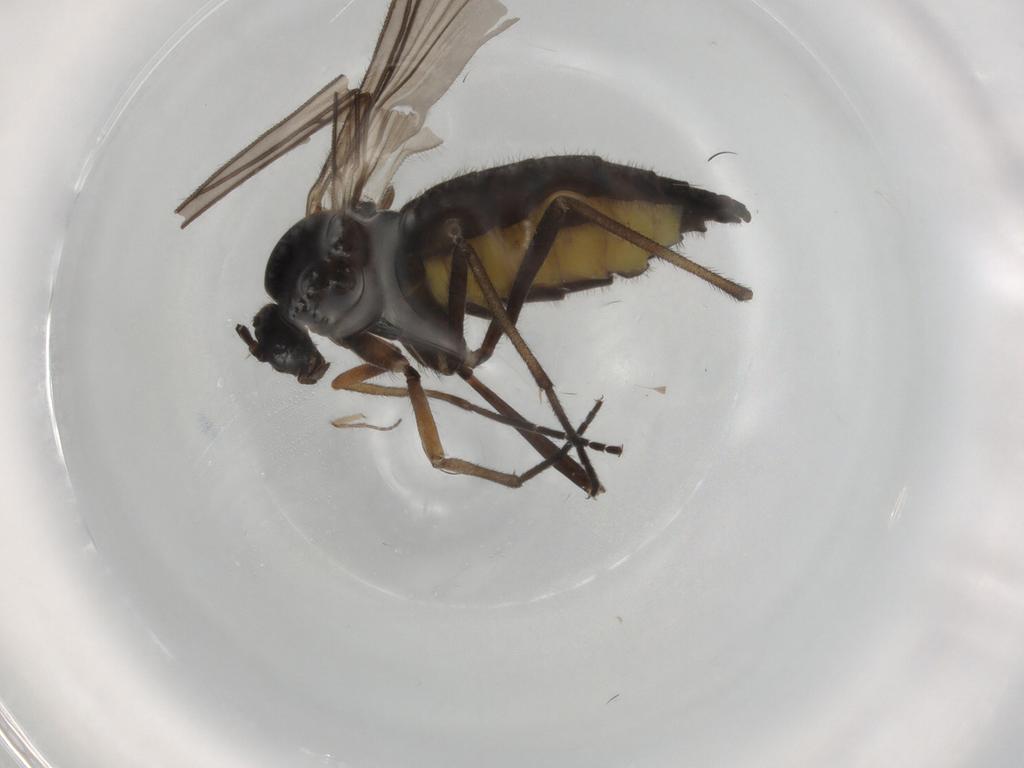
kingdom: Animalia
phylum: Arthropoda
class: Insecta
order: Diptera
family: Sciaridae
